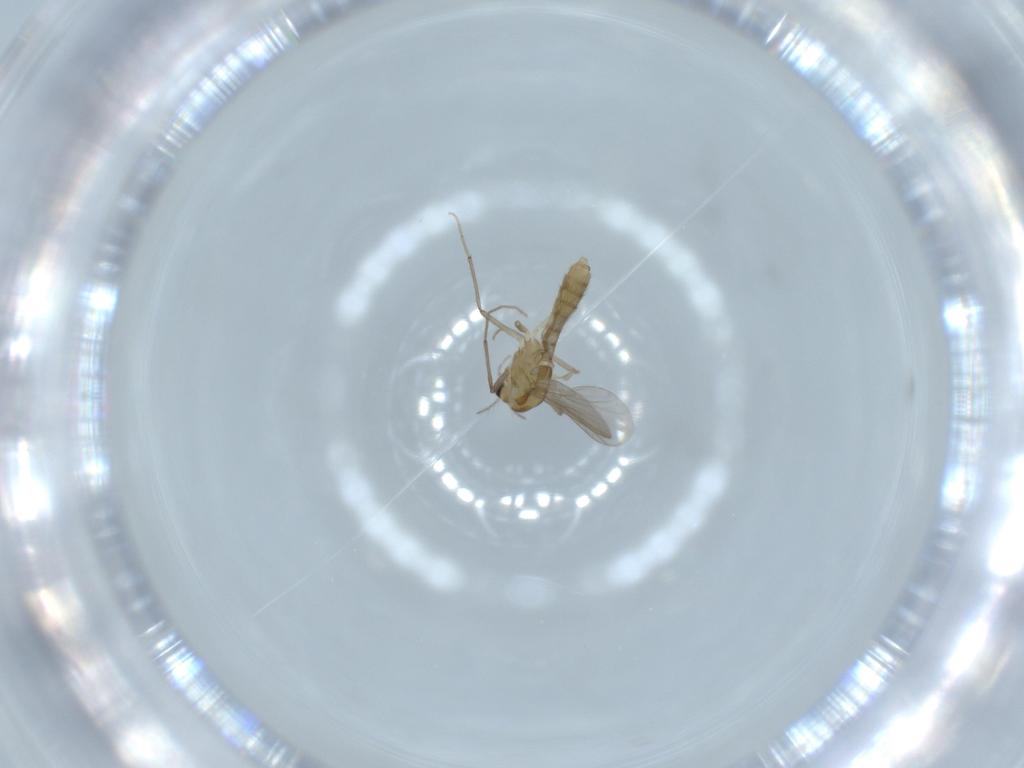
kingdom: Animalia
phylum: Arthropoda
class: Insecta
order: Diptera
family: Chironomidae
